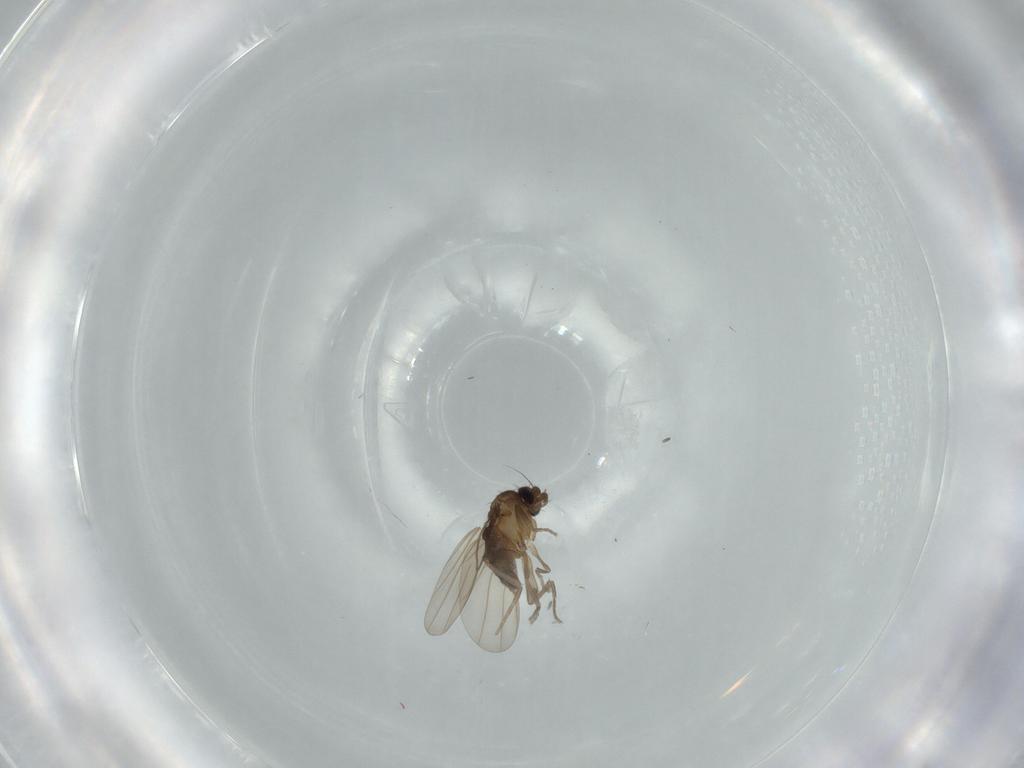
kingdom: Animalia
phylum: Arthropoda
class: Insecta
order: Diptera
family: Phoridae
